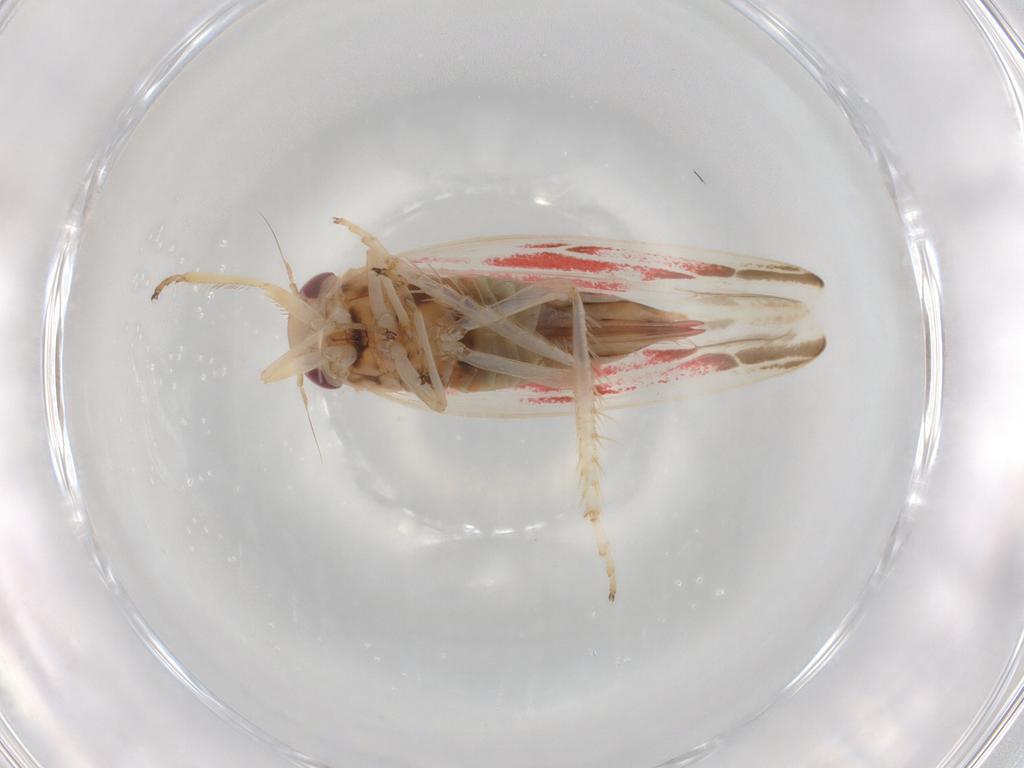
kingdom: Animalia
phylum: Arthropoda
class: Insecta
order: Hemiptera
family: Cicadellidae
